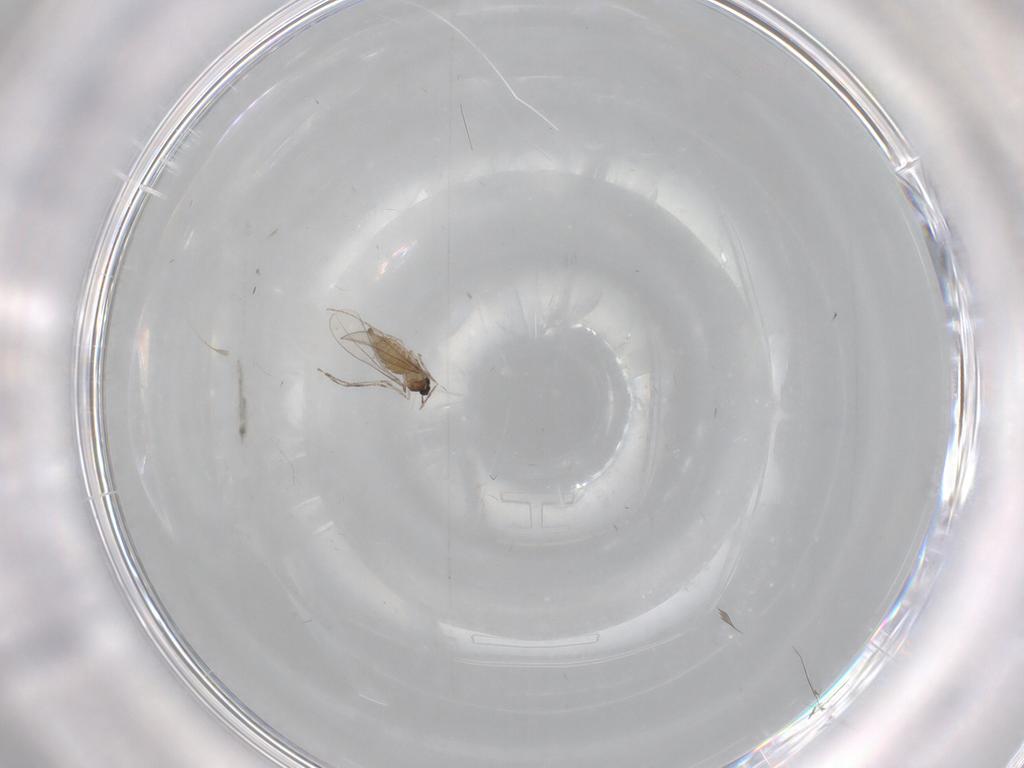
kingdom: Animalia
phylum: Arthropoda
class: Insecta
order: Diptera
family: Cecidomyiidae
